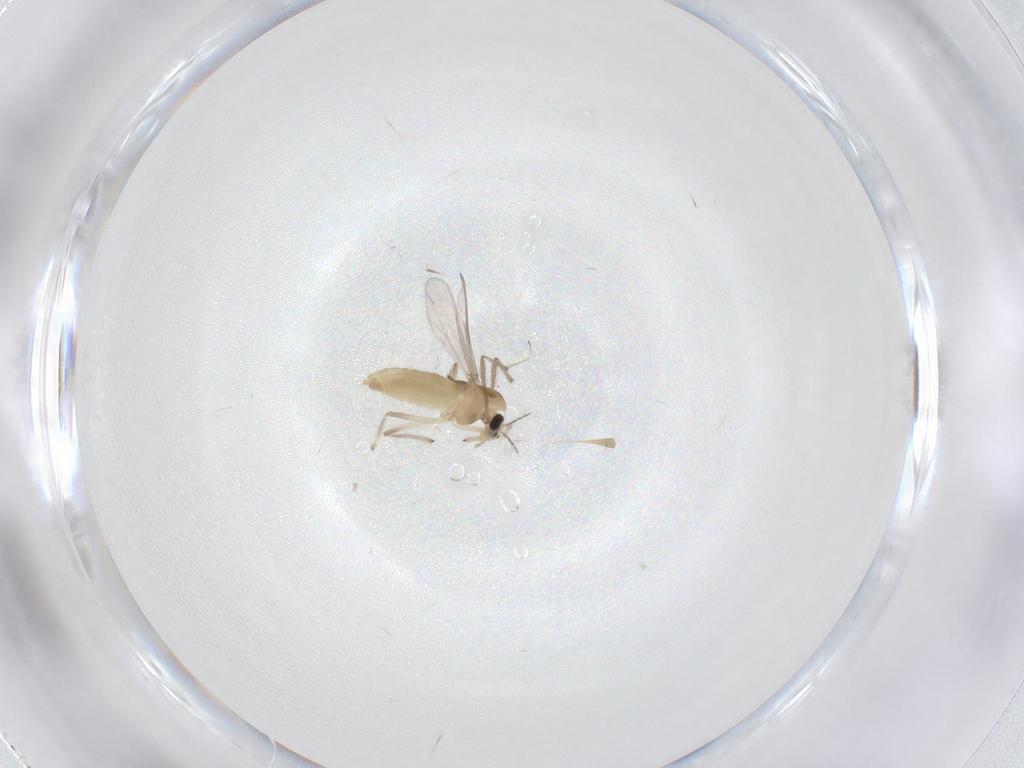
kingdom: Animalia
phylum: Arthropoda
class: Insecta
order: Diptera
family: Chironomidae
